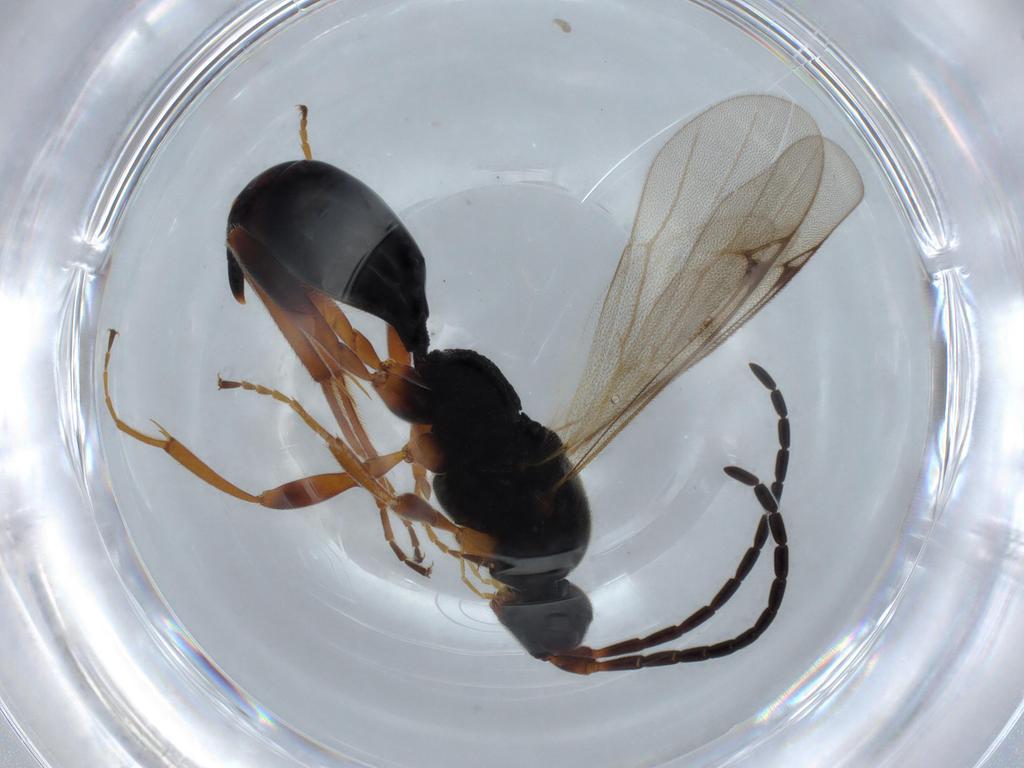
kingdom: Animalia
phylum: Arthropoda
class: Insecta
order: Hymenoptera
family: Proctotrupidae
